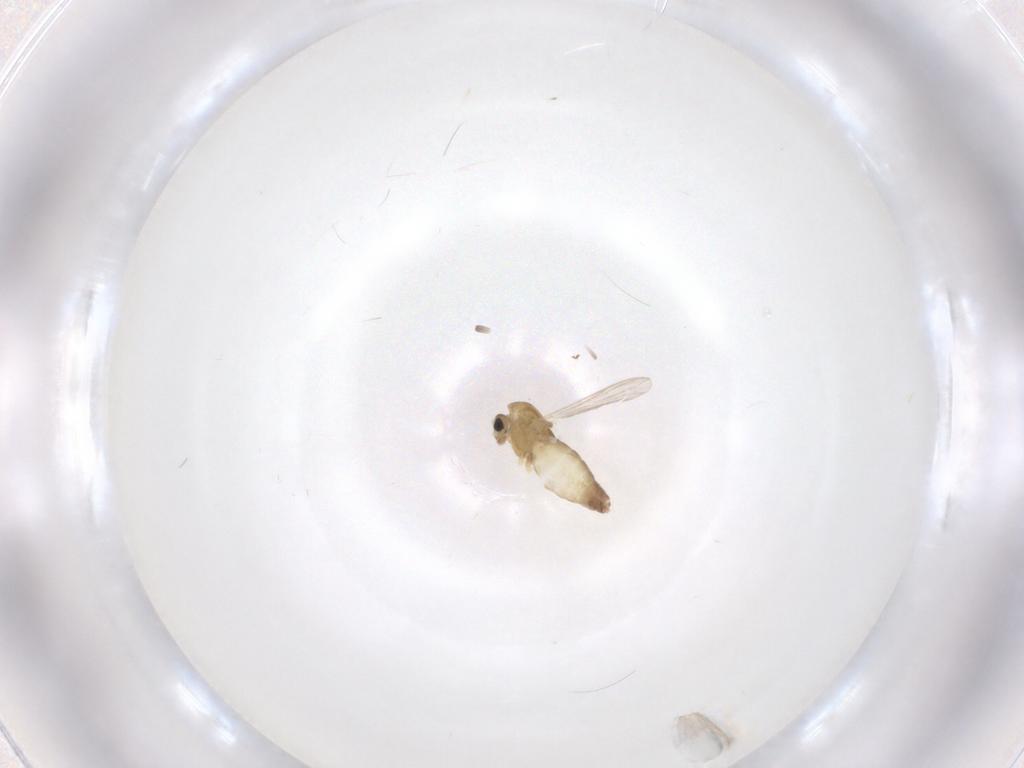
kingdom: Animalia
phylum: Arthropoda
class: Insecta
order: Diptera
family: Chironomidae
